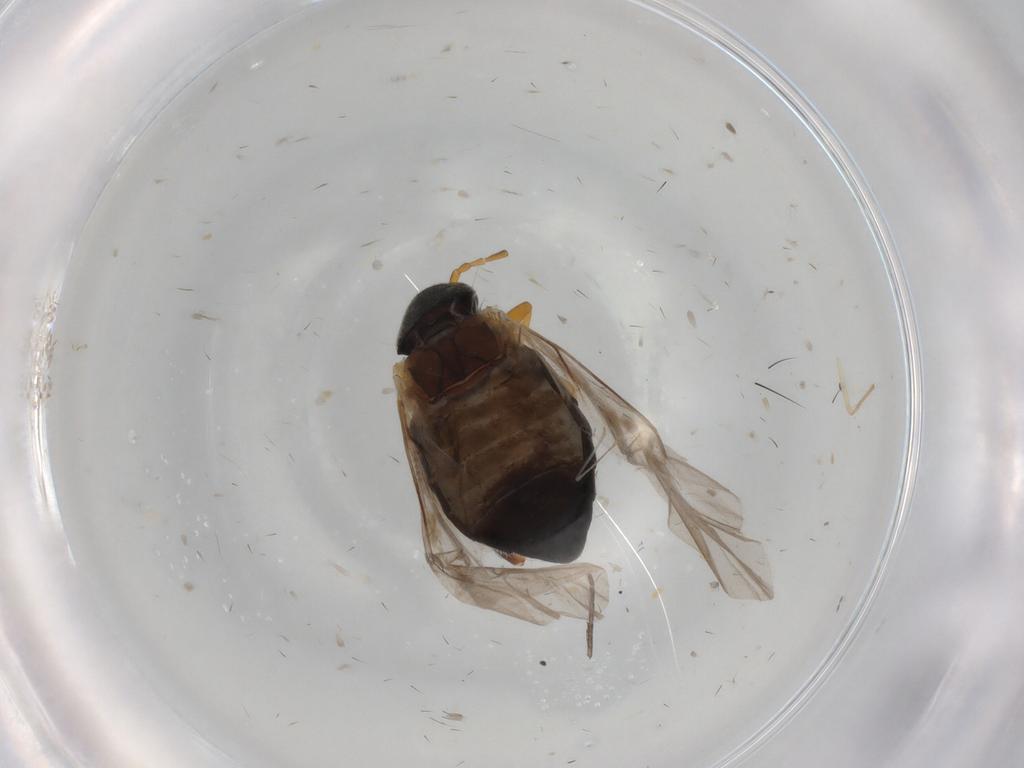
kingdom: Animalia
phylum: Arthropoda
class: Insecta
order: Coleoptera
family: Chrysomelidae
